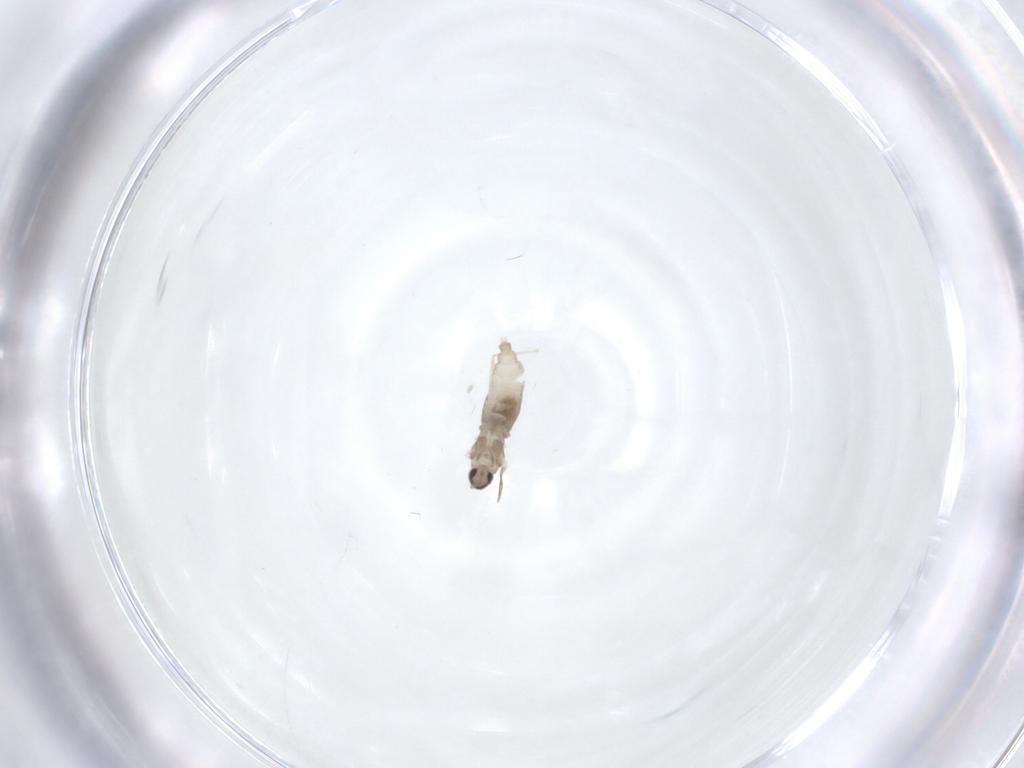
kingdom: Animalia
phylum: Arthropoda
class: Insecta
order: Diptera
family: Cecidomyiidae
